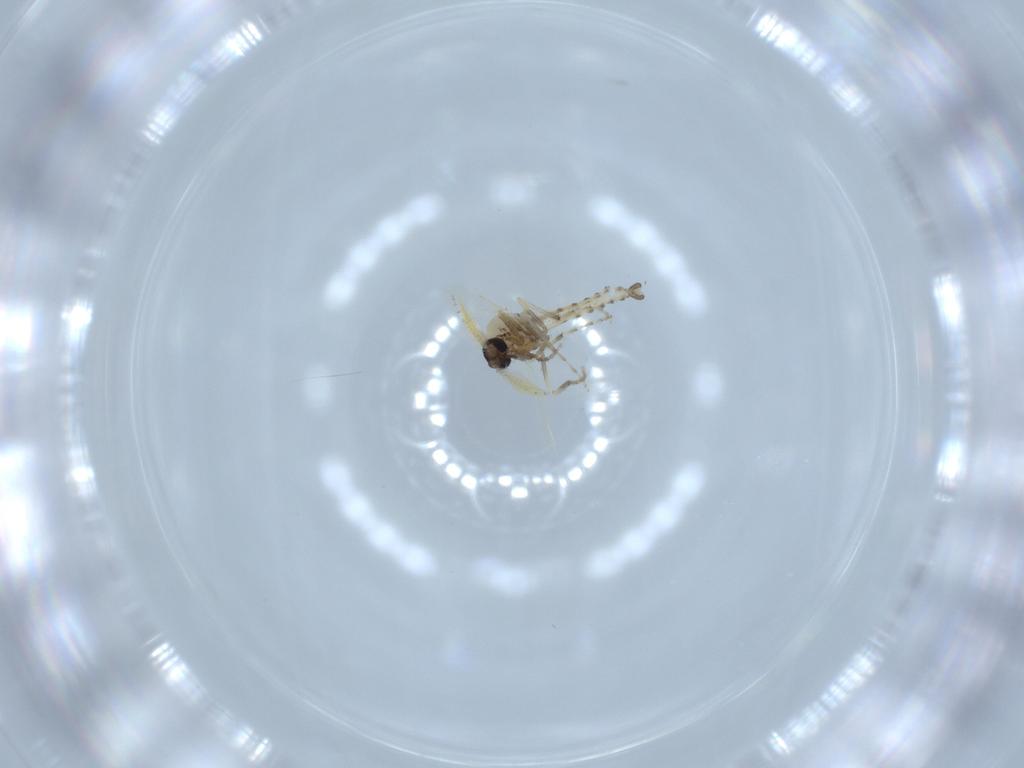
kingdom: Animalia
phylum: Arthropoda
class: Insecta
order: Diptera
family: Ceratopogonidae
